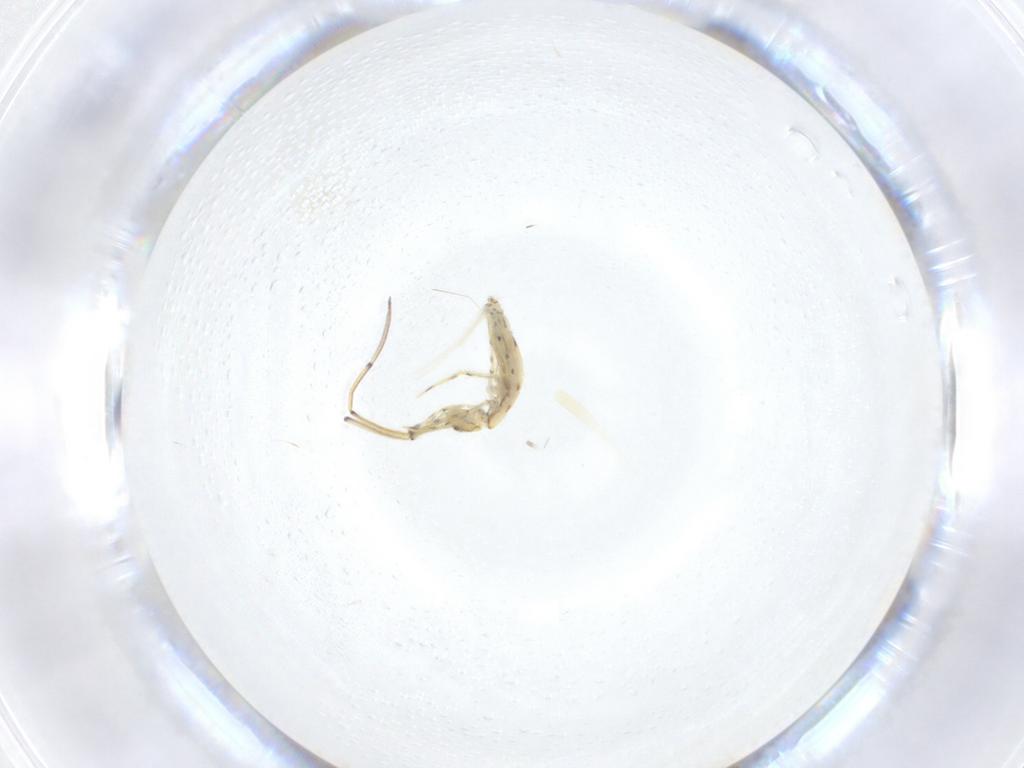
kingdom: Animalia
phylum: Arthropoda
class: Collembola
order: Entomobryomorpha
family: Paronellidae
